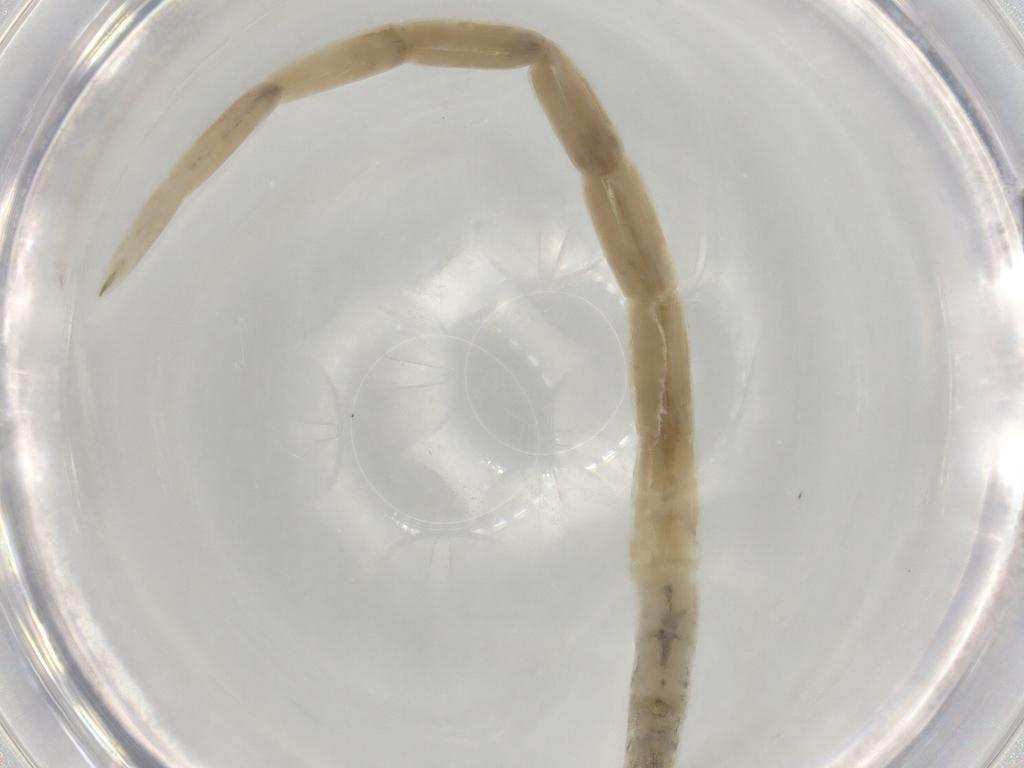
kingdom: Animalia
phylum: Arthropoda
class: Insecta
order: Diptera
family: Ceratopogonidae
